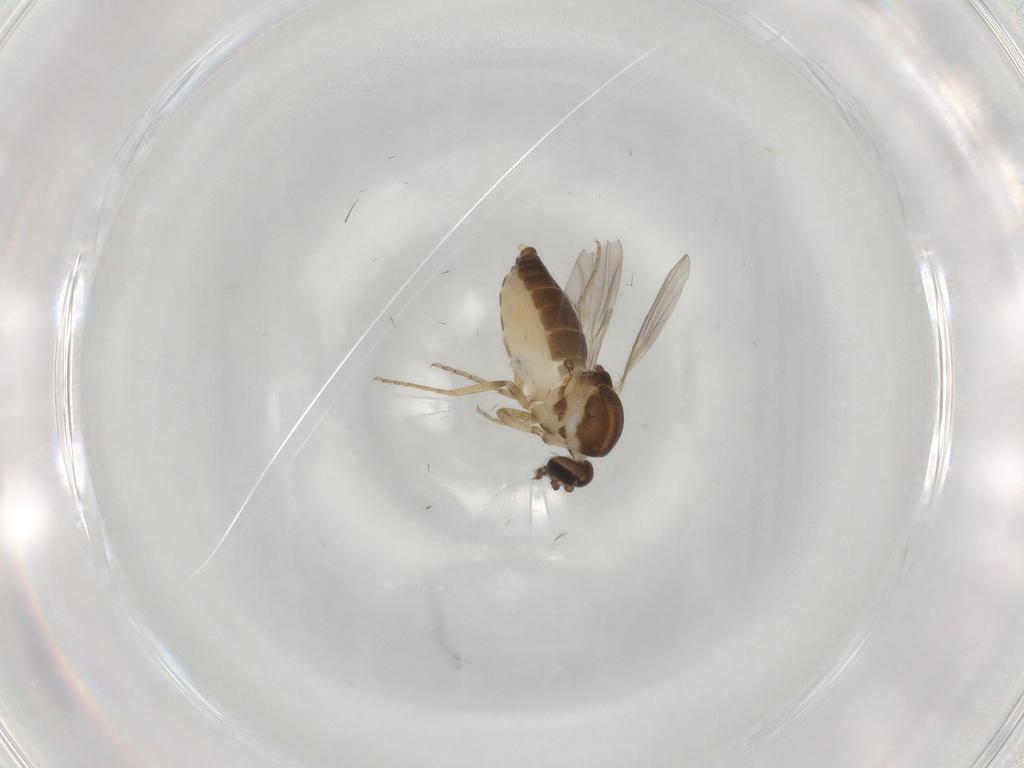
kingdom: Animalia
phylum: Arthropoda
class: Insecta
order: Diptera
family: Ceratopogonidae
